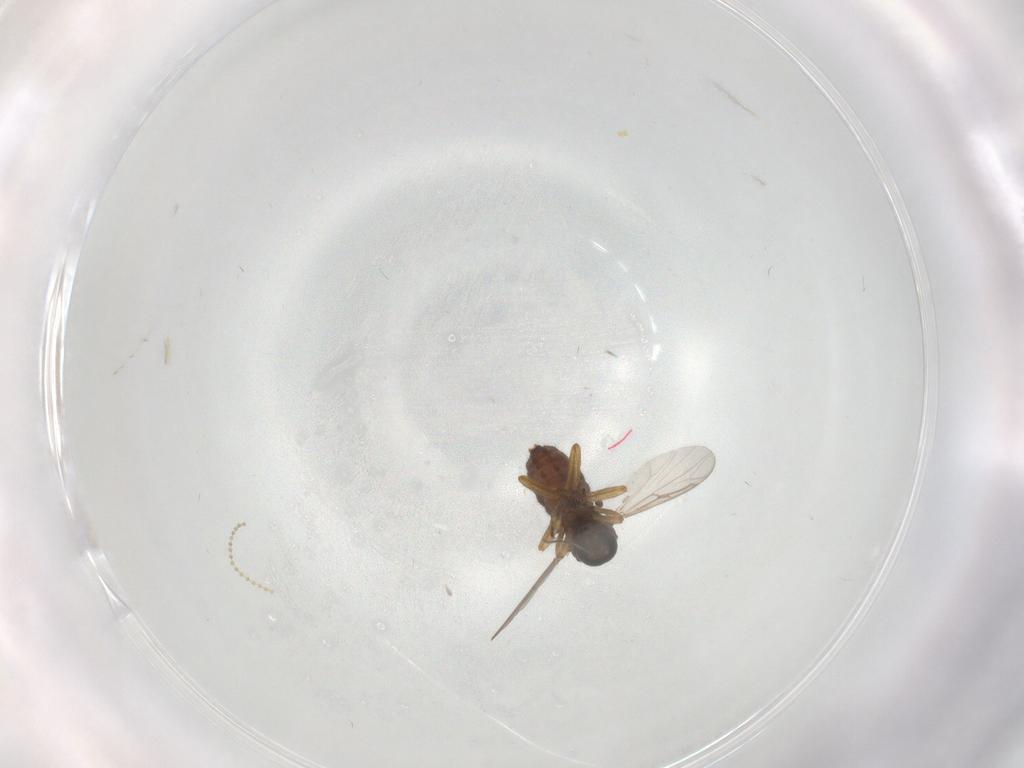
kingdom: Animalia
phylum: Arthropoda
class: Insecta
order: Diptera
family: Ceratopogonidae
